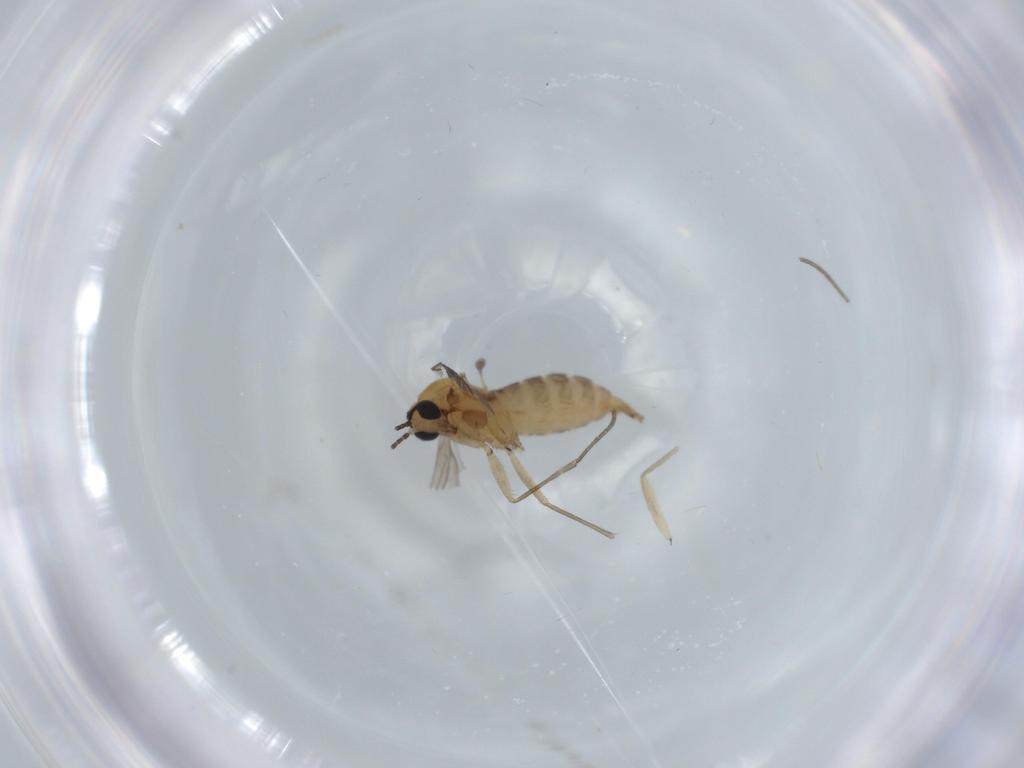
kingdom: Animalia
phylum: Arthropoda
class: Insecta
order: Diptera
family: Sciaridae
